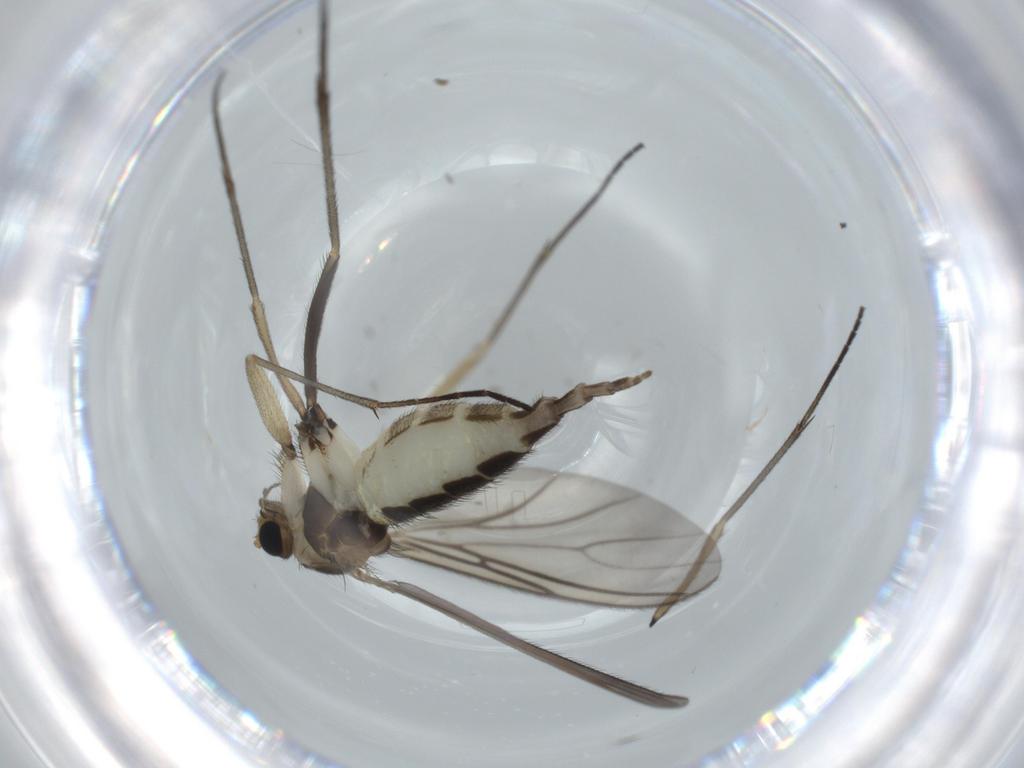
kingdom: Animalia
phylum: Arthropoda
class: Insecta
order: Diptera
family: Sciaridae
